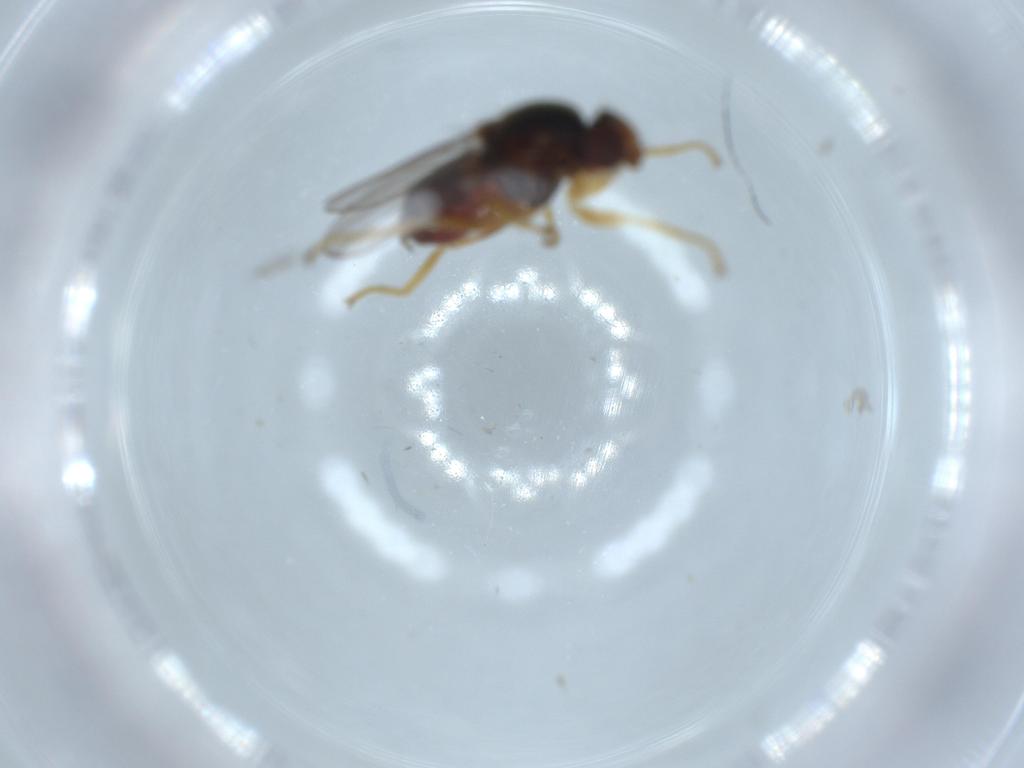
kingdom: Animalia
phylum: Arthropoda
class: Insecta
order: Diptera
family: Chloropidae
